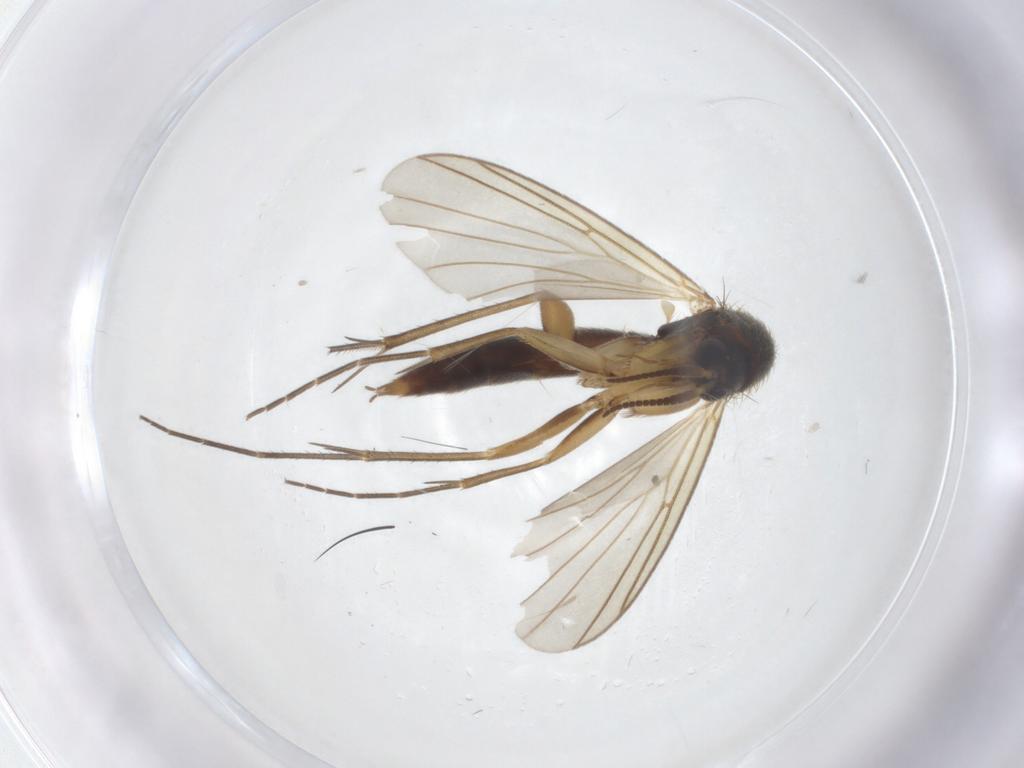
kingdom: Animalia
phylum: Arthropoda
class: Insecta
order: Diptera
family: Mycetophilidae
